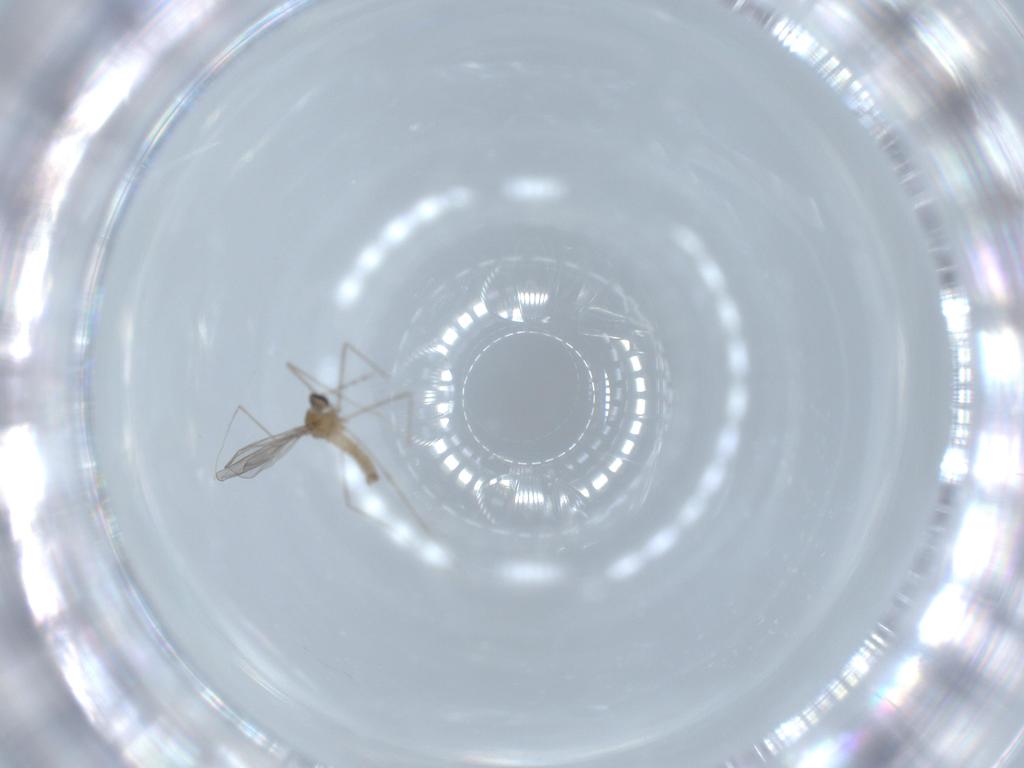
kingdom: Animalia
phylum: Arthropoda
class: Insecta
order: Diptera
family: Cecidomyiidae
